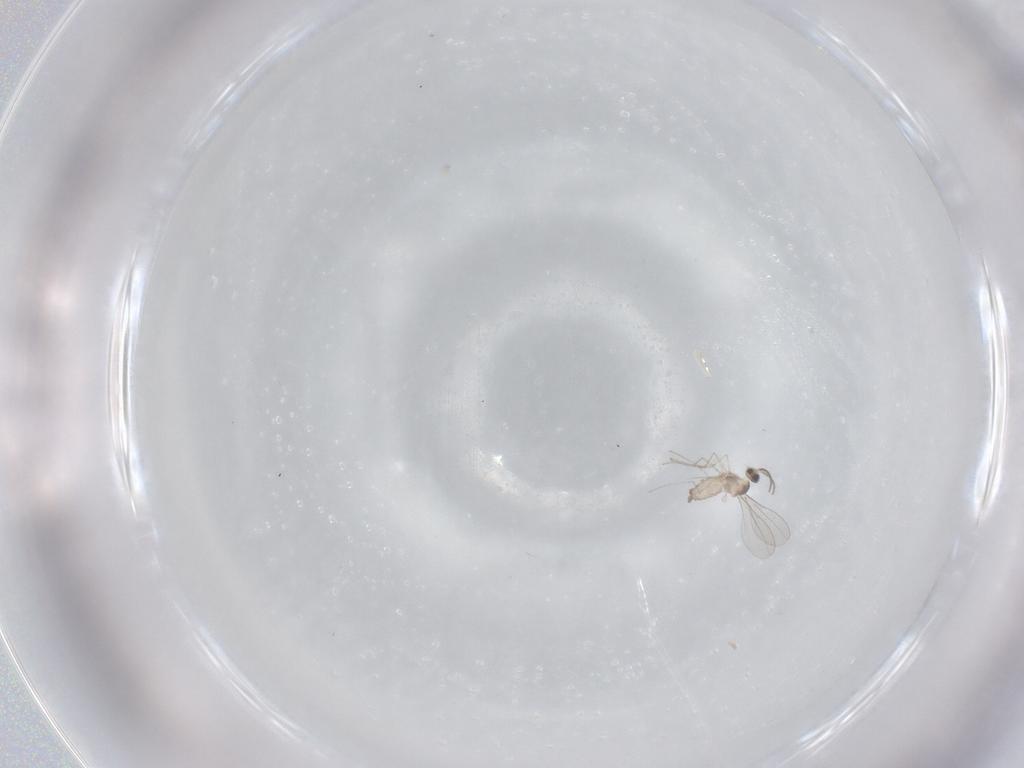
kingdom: Animalia
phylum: Arthropoda
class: Insecta
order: Diptera
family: Cecidomyiidae
